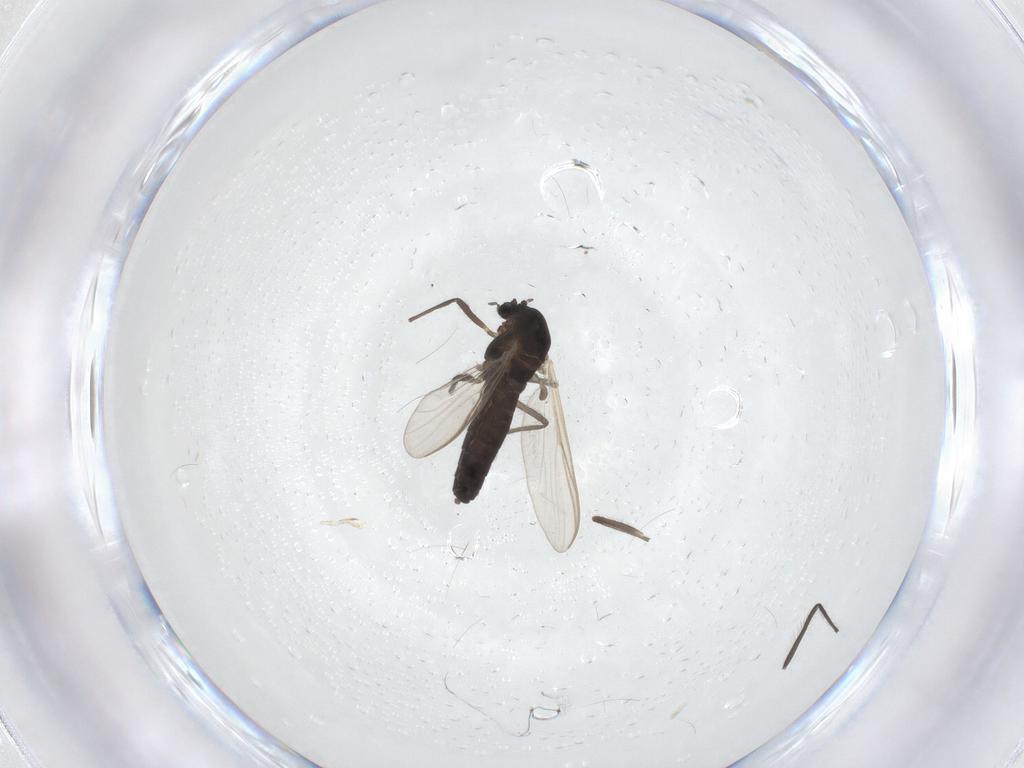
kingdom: Animalia
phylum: Arthropoda
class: Insecta
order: Diptera
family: Chironomidae
